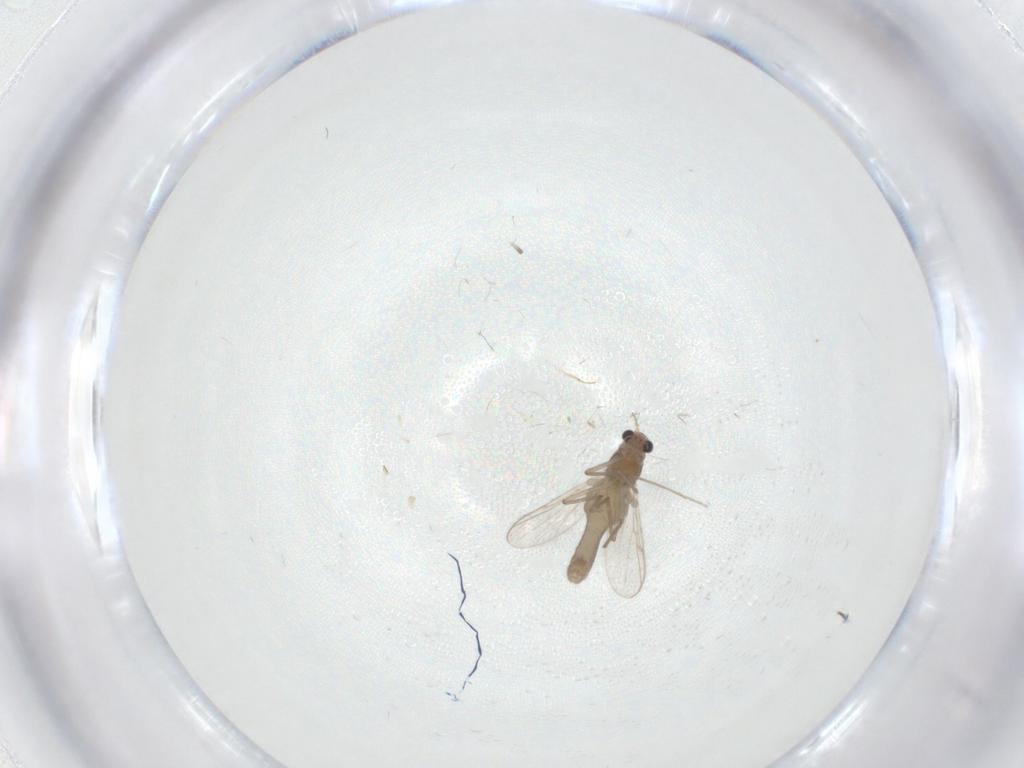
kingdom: Animalia
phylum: Arthropoda
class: Insecta
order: Diptera
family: Chironomidae
